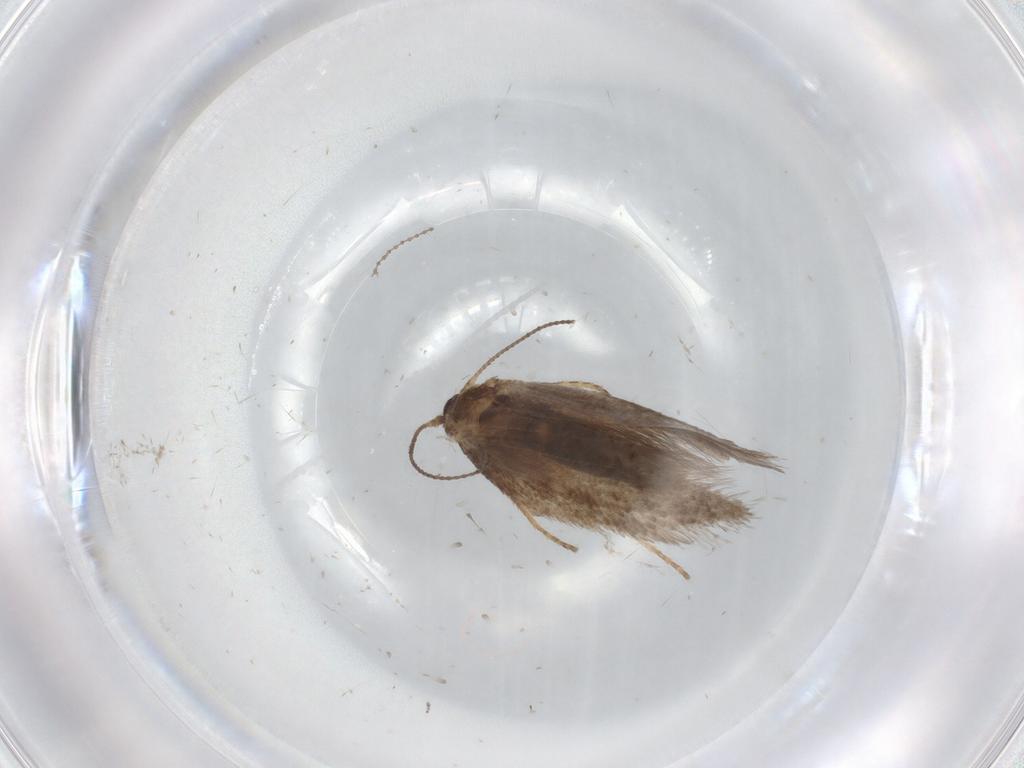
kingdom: Animalia
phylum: Arthropoda
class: Insecta
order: Lepidoptera
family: Nepticulidae
